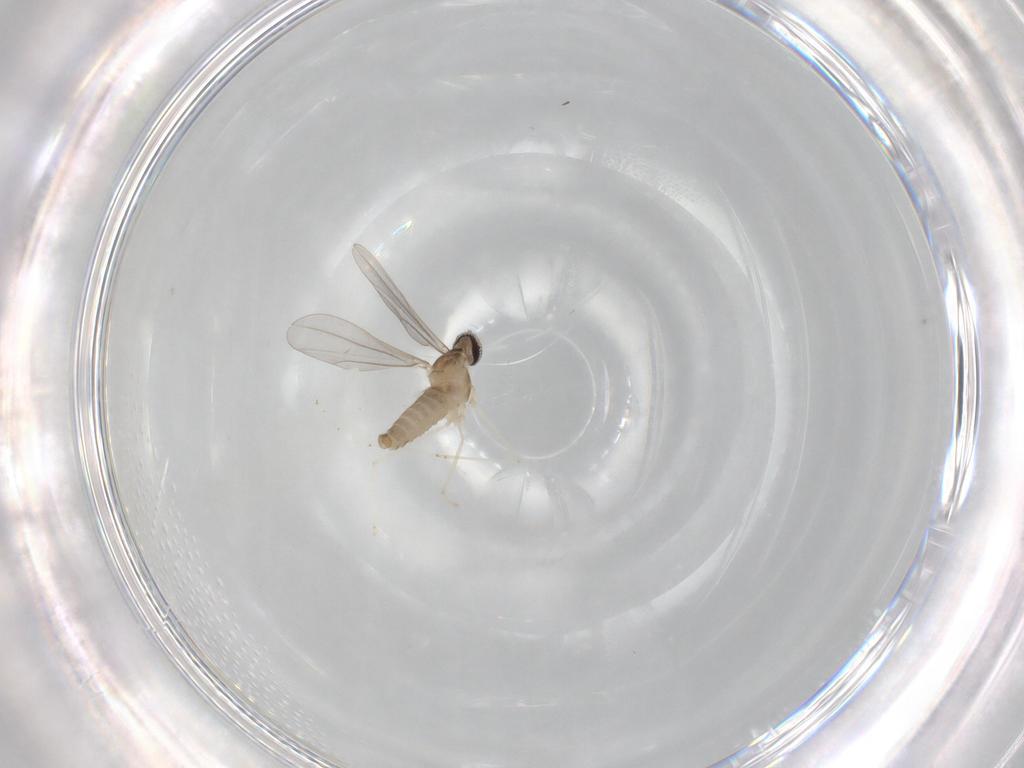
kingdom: Animalia
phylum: Arthropoda
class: Insecta
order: Diptera
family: Cecidomyiidae
